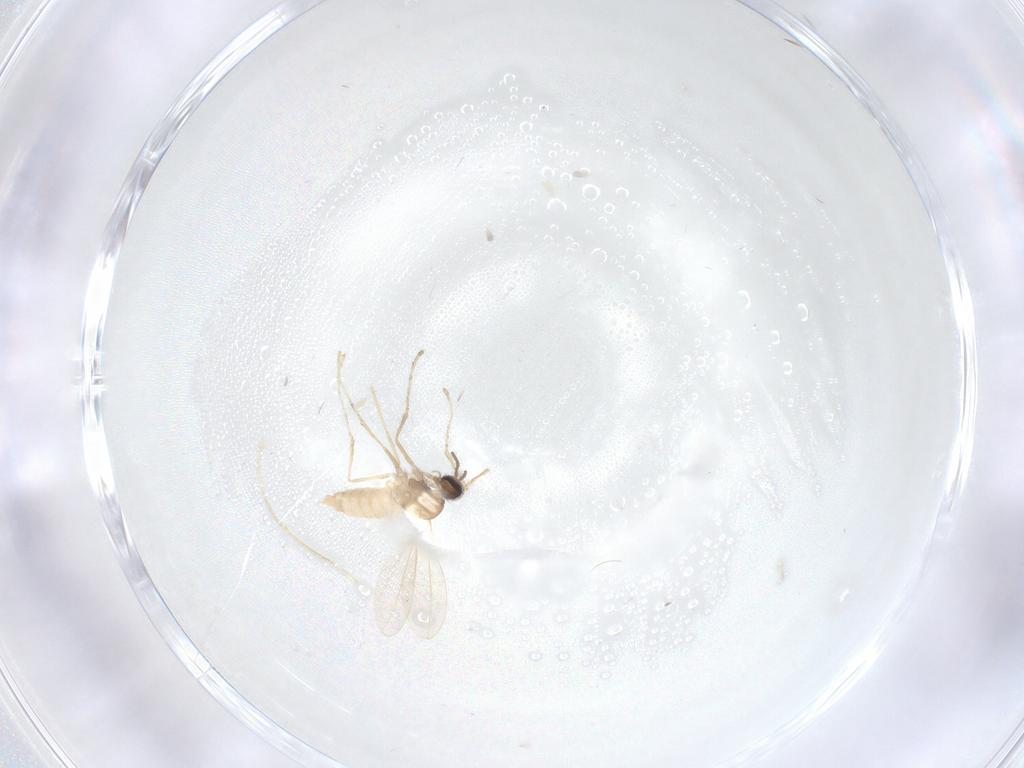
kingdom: Animalia
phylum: Arthropoda
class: Insecta
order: Diptera
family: Cecidomyiidae
